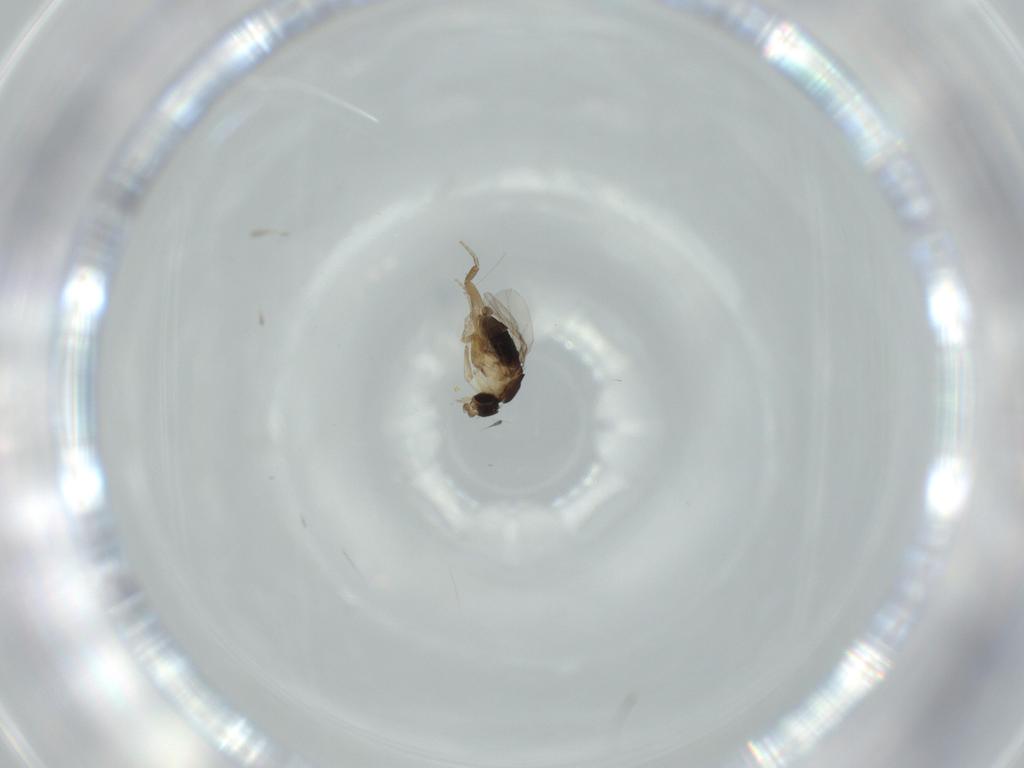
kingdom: Animalia
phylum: Arthropoda
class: Insecta
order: Diptera
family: Phoridae
